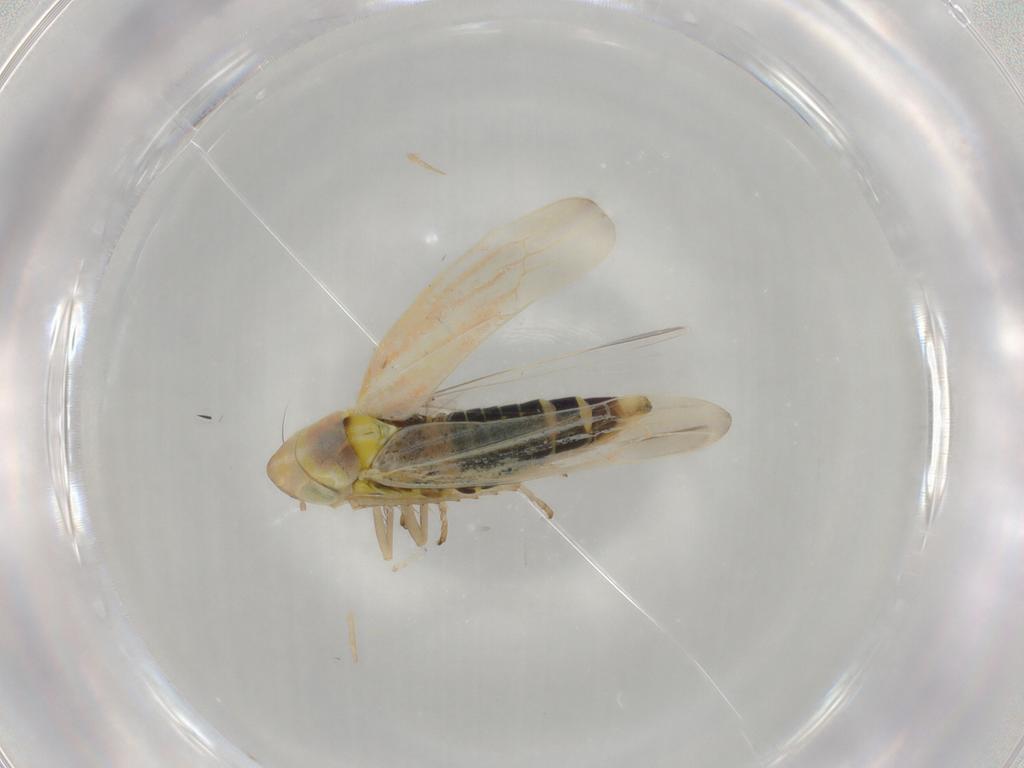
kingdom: Animalia
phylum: Arthropoda
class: Insecta
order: Hemiptera
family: Cicadellidae
